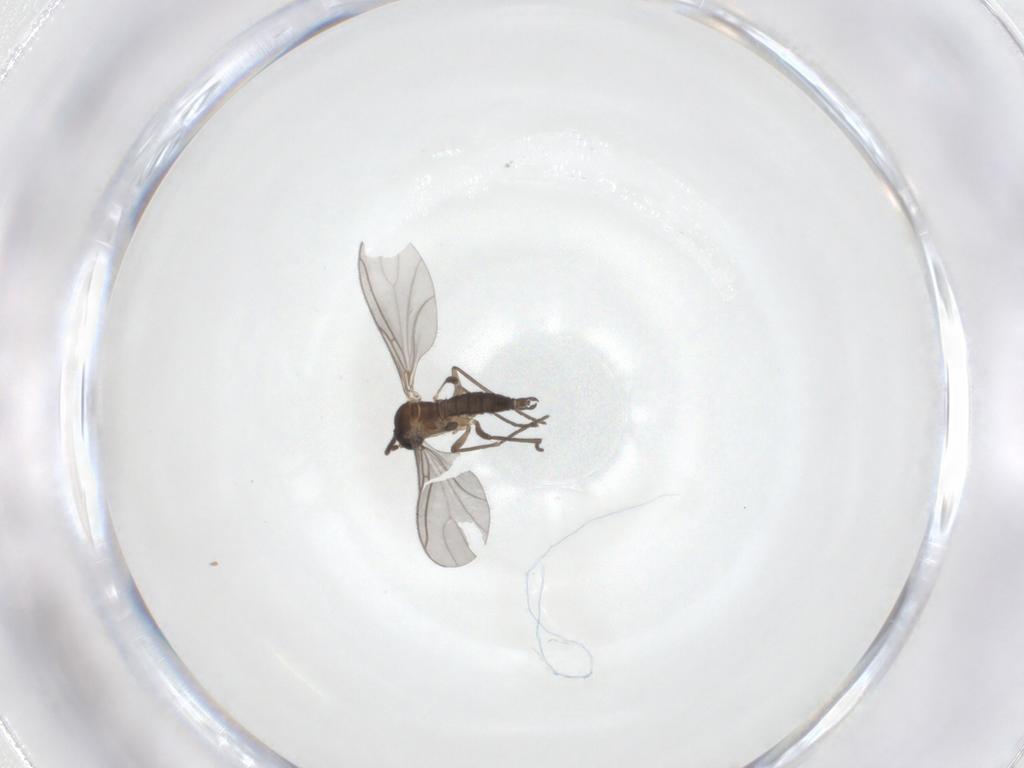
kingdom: Animalia
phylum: Arthropoda
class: Insecta
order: Diptera
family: Sciaridae
